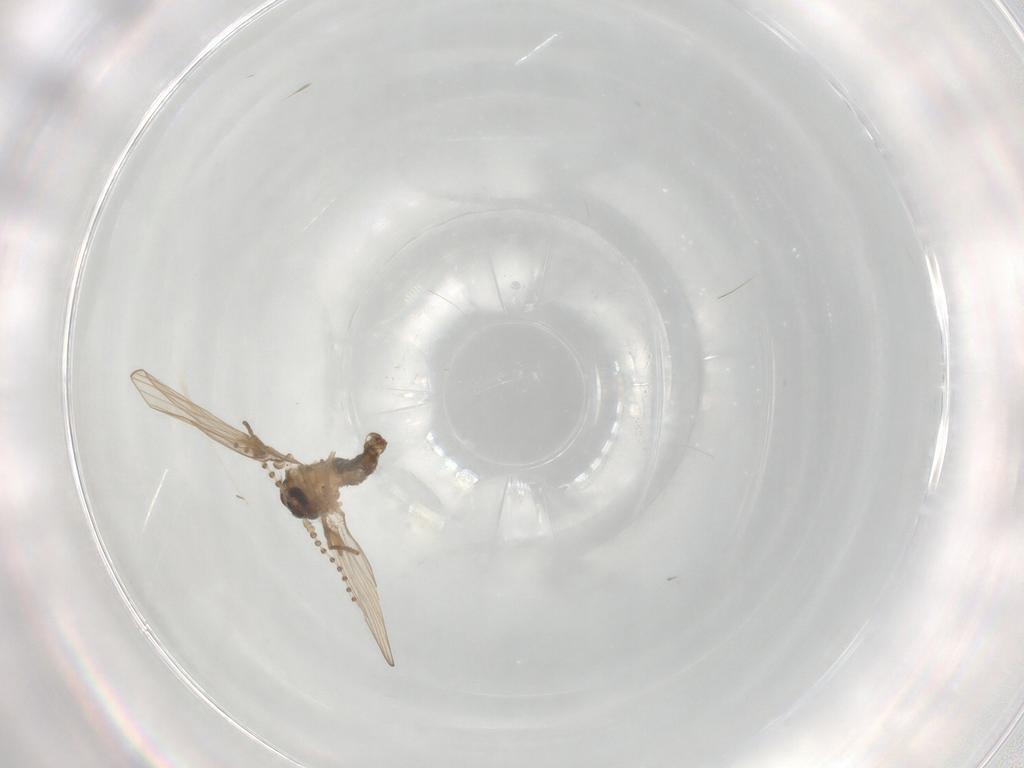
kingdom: Animalia
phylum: Arthropoda
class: Insecta
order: Diptera
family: Psychodidae
